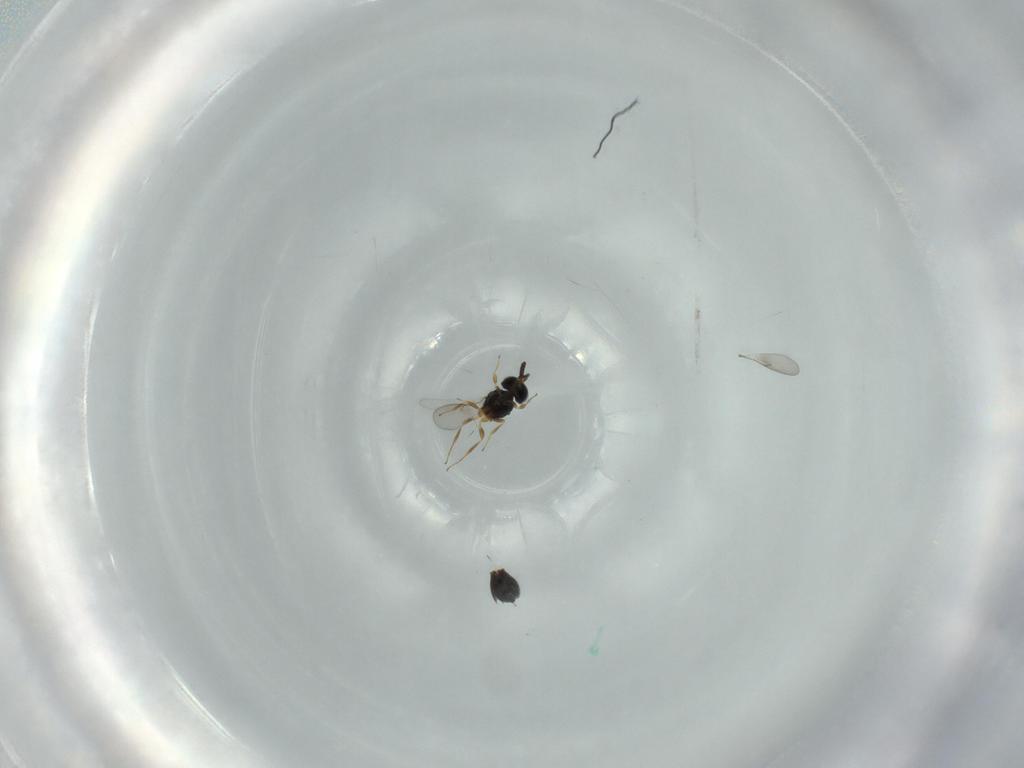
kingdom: Animalia
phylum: Arthropoda
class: Insecta
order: Hymenoptera
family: Scelionidae
